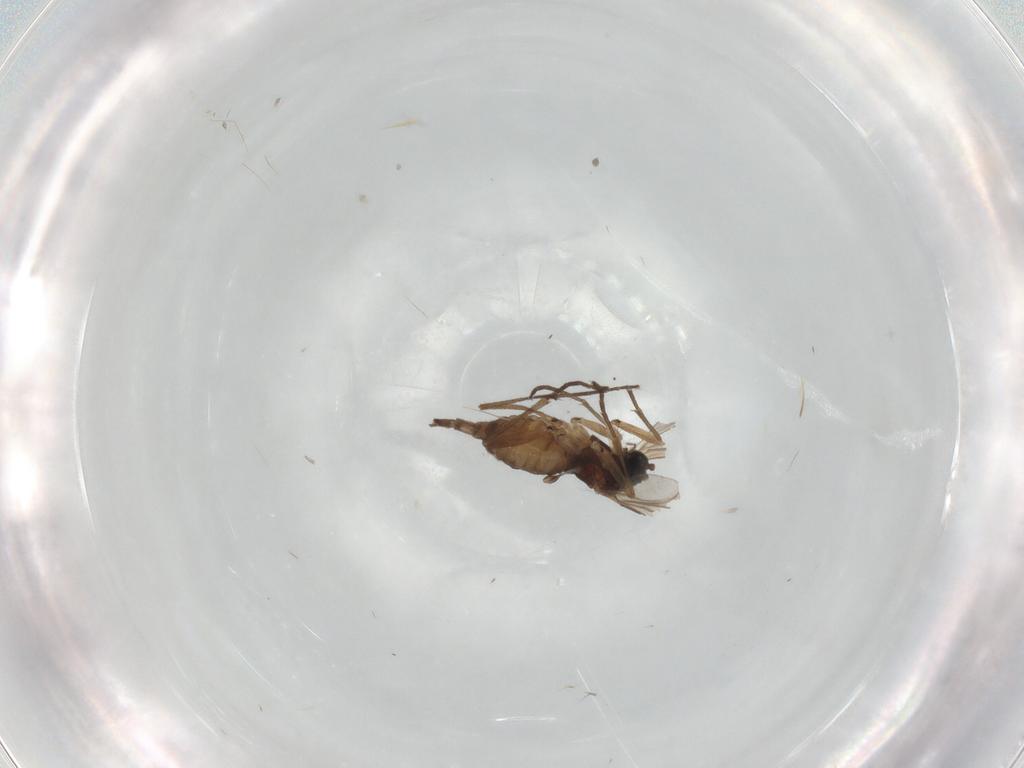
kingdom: Animalia
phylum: Arthropoda
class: Insecta
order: Diptera
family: Sciaridae
